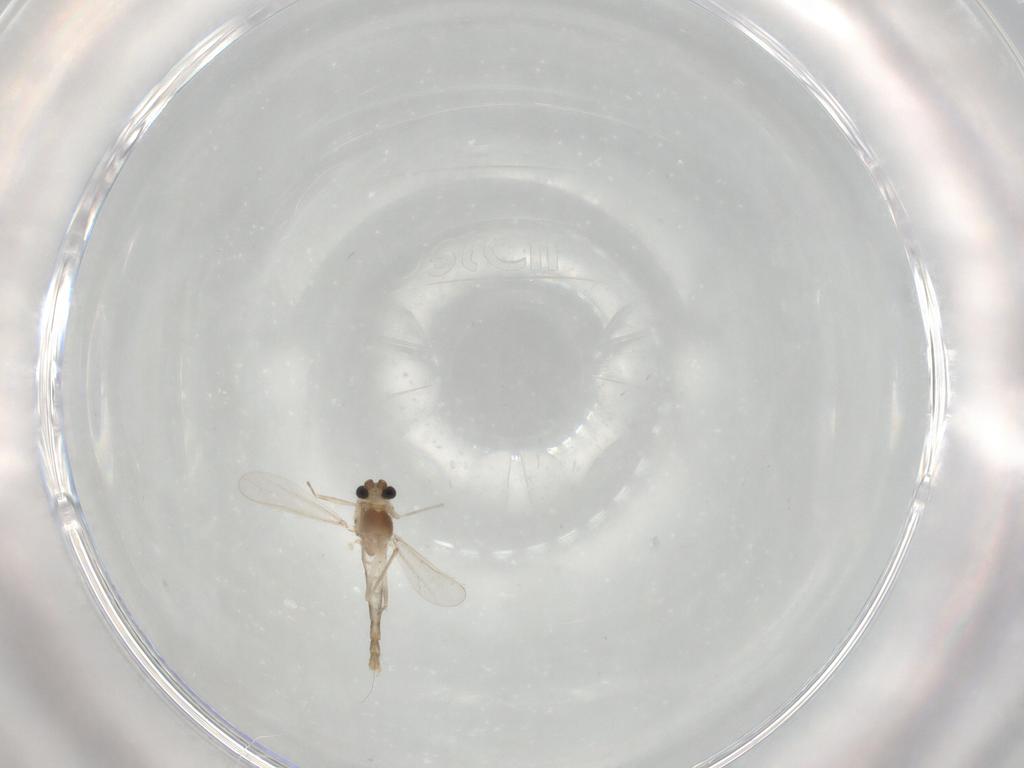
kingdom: Animalia
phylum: Arthropoda
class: Insecta
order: Diptera
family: Chironomidae
